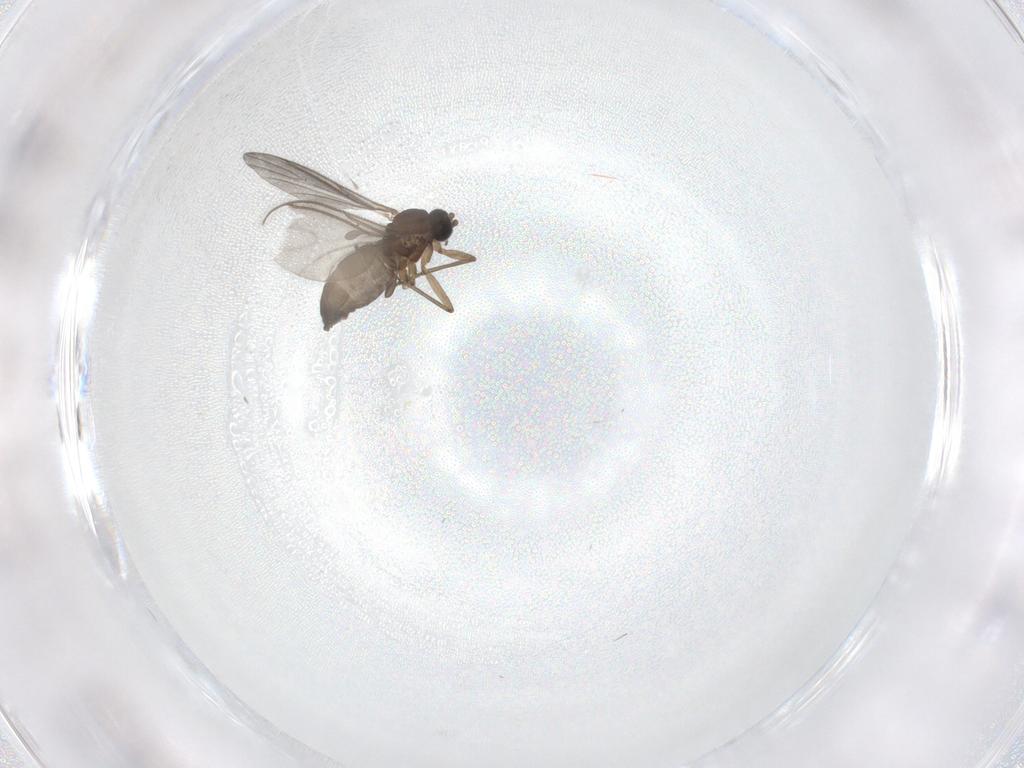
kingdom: Animalia
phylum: Arthropoda
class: Insecta
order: Diptera
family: Sciaridae
